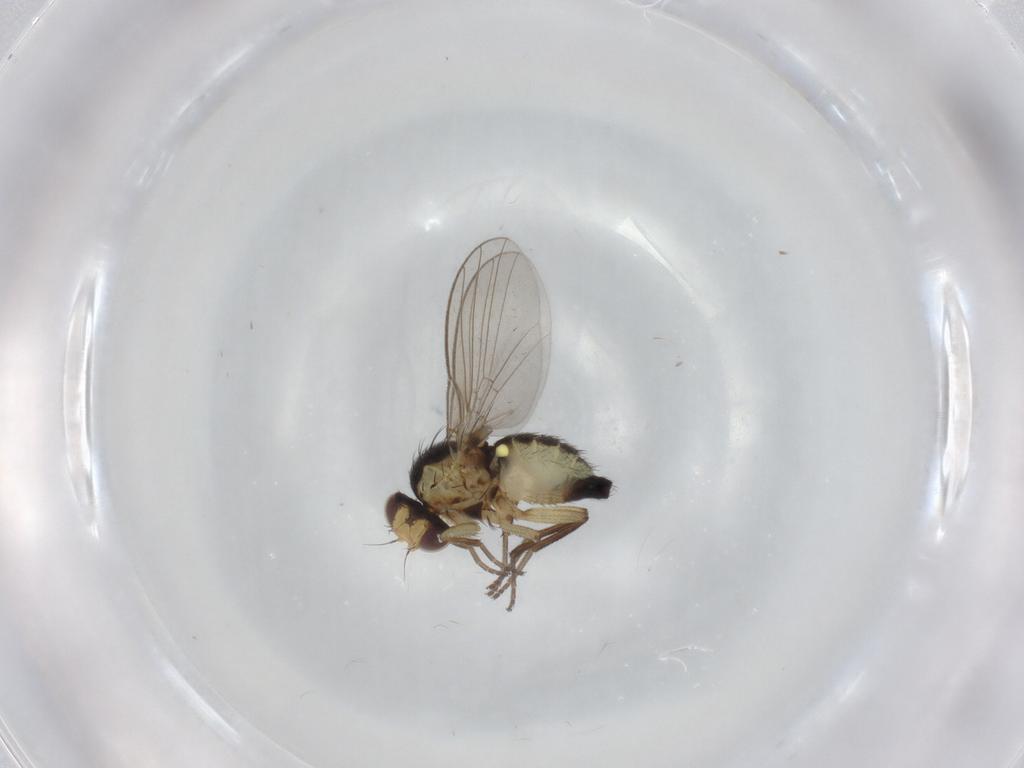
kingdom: Animalia
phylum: Arthropoda
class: Insecta
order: Diptera
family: Agromyzidae
